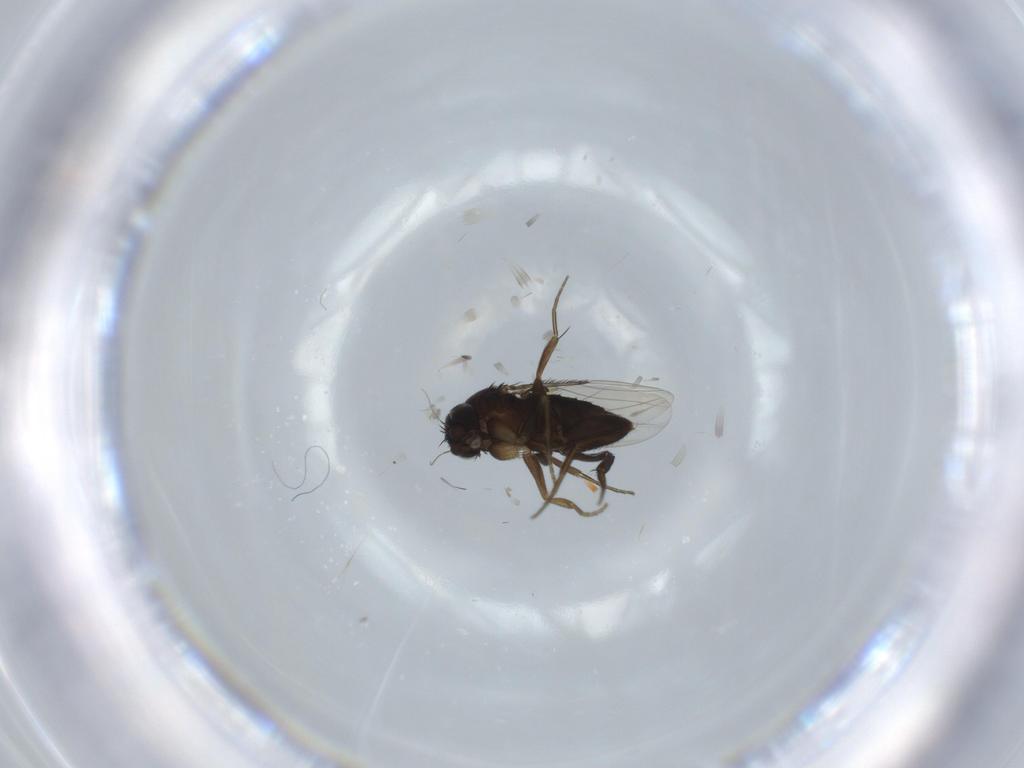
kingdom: Animalia
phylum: Arthropoda
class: Insecta
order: Diptera
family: Phoridae
